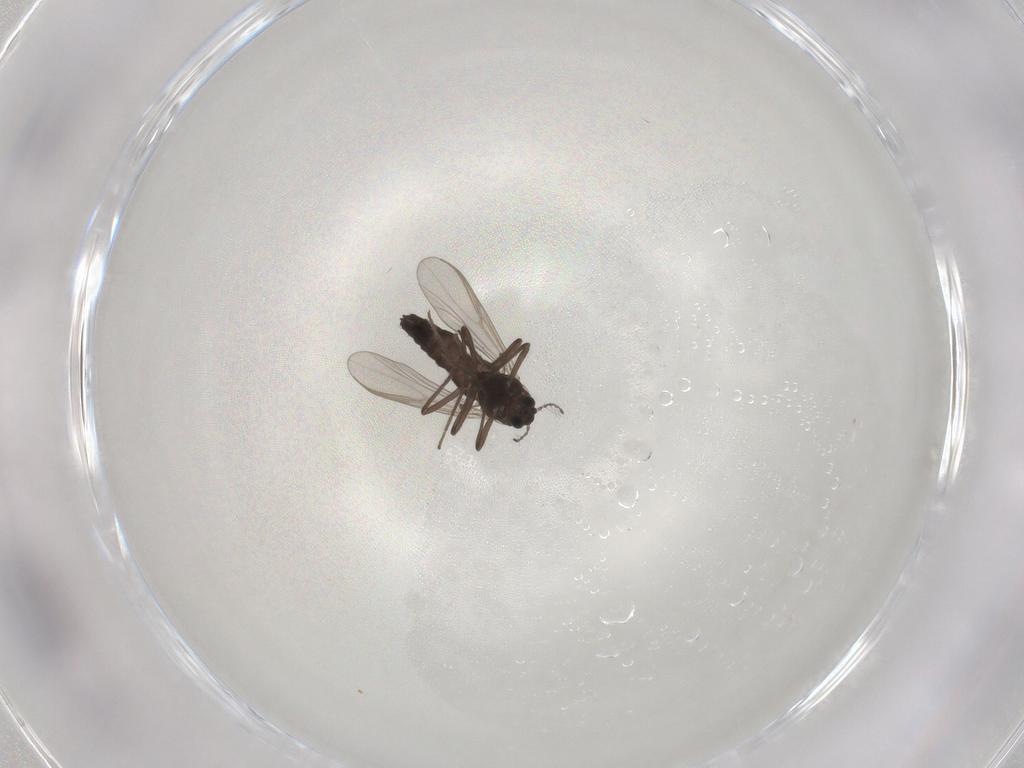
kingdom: Animalia
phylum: Arthropoda
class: Insecta
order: Diptera
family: Chironomidae
